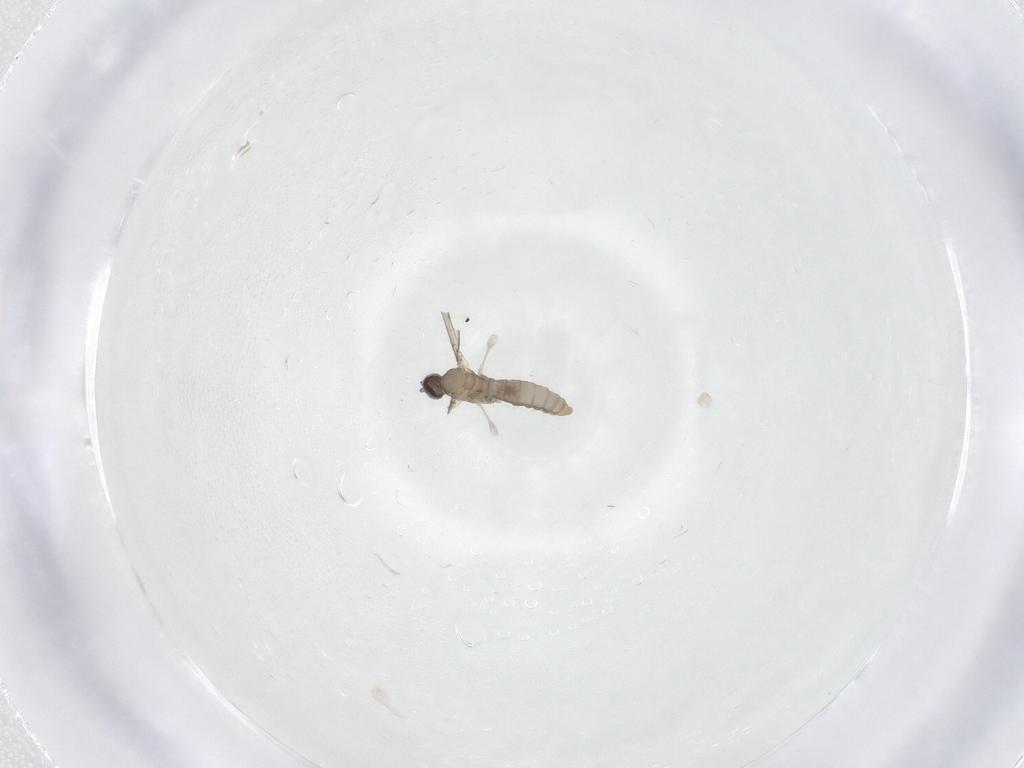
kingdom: Animalia
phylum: Arthropoda
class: Insecta
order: Diptera
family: Cecidomyiidae
